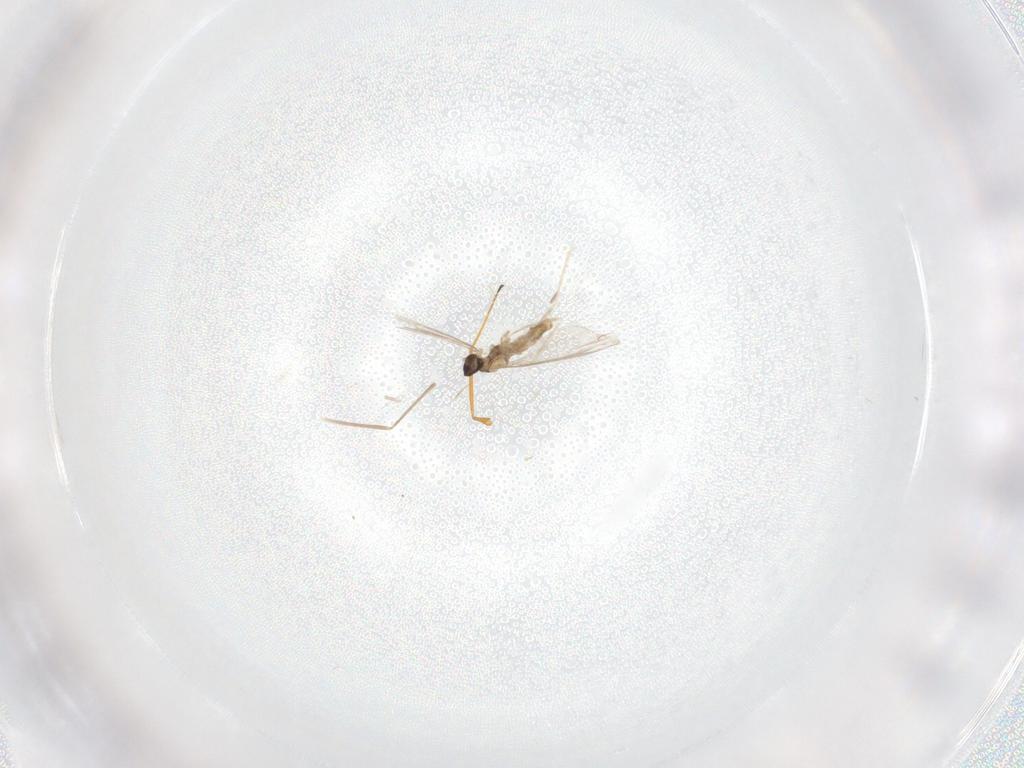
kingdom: Animalia
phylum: Arthropoda
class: Insecta
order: Diptera
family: Cecidomyiidae
